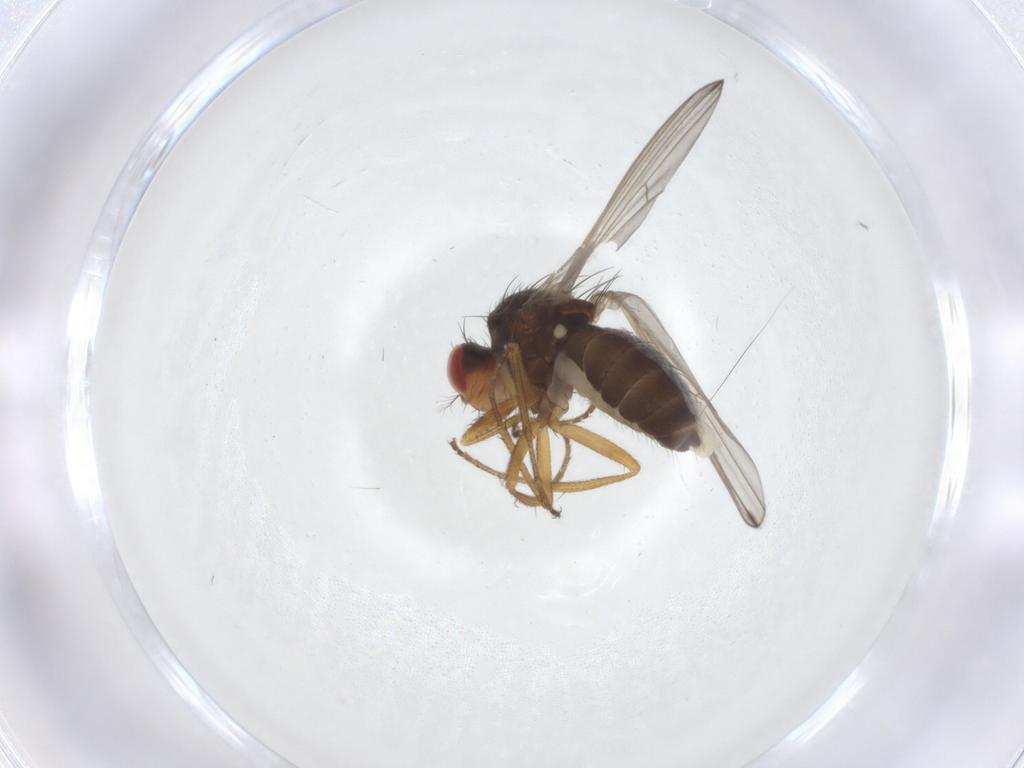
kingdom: Animalia
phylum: Arthropoda
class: Insecta
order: Diptera
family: Drosophilidae
